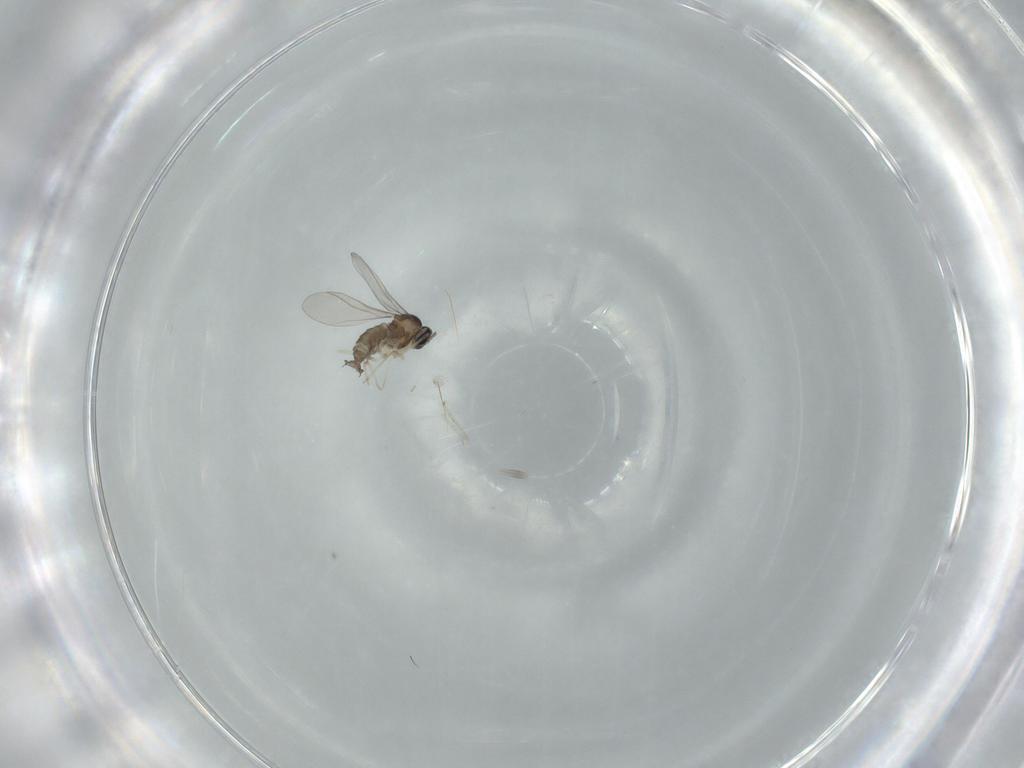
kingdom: Animalia
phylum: Arthropoda
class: Insecta
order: Diptera
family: Cecidomyiidae
